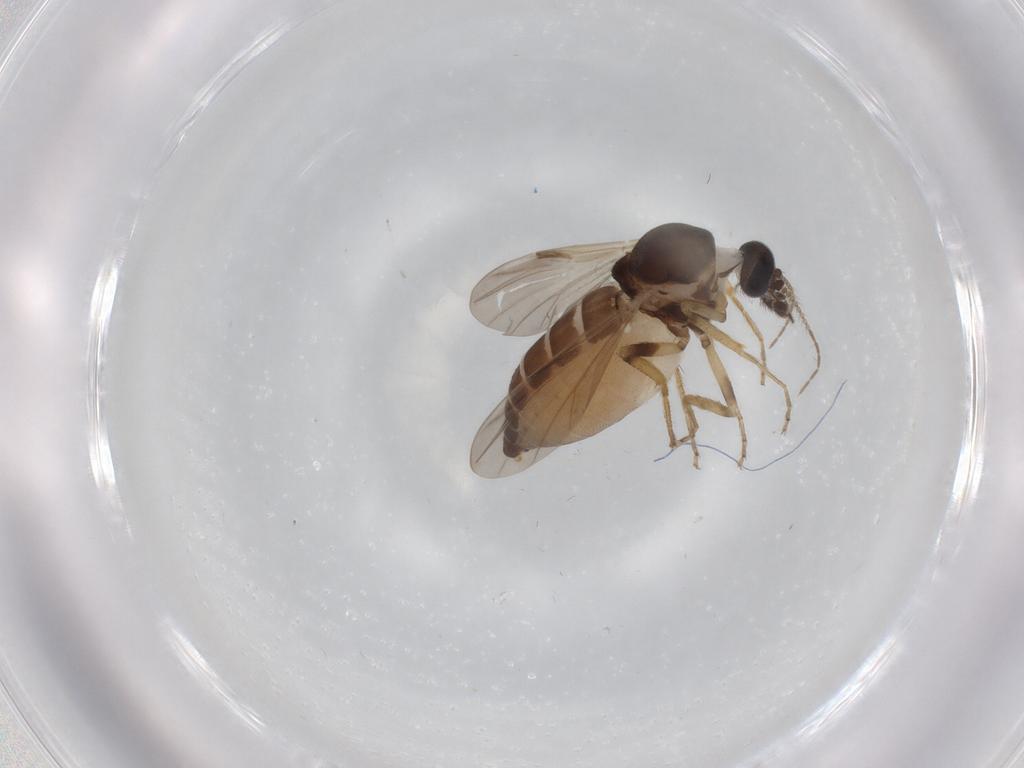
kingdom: Animalia
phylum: Arthropoda
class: Insecta
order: Diptera
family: Ceratopogonidae
